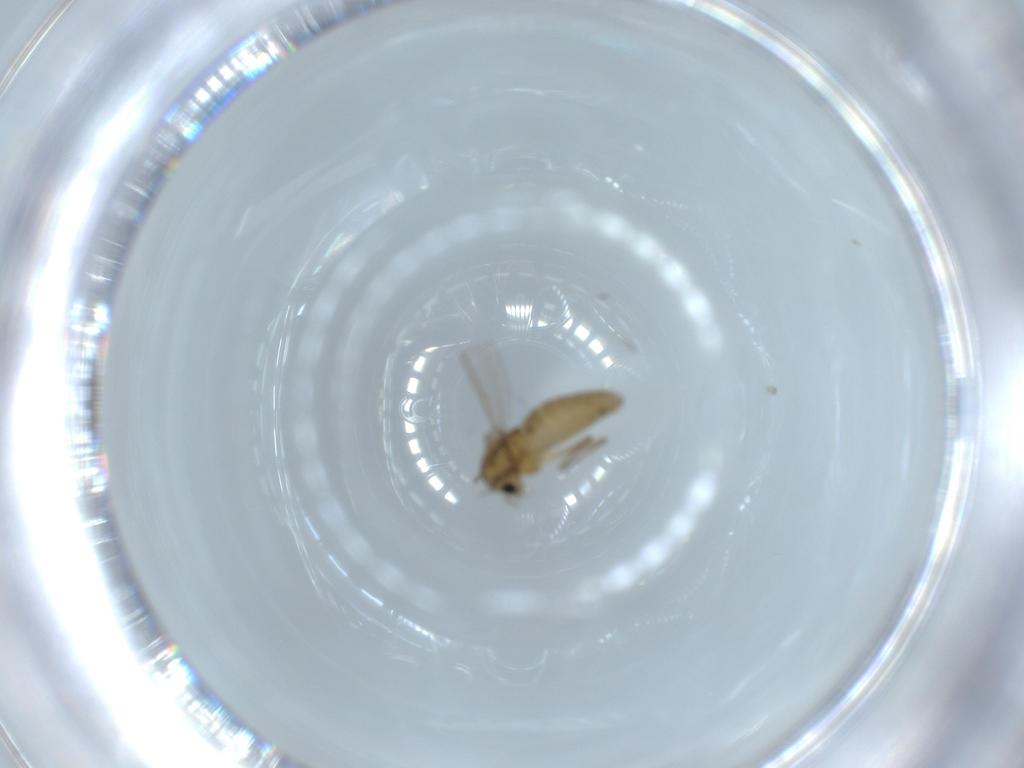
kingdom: Animalia
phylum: Arthropoda
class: Insecta
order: Diptera
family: Chironomidae
